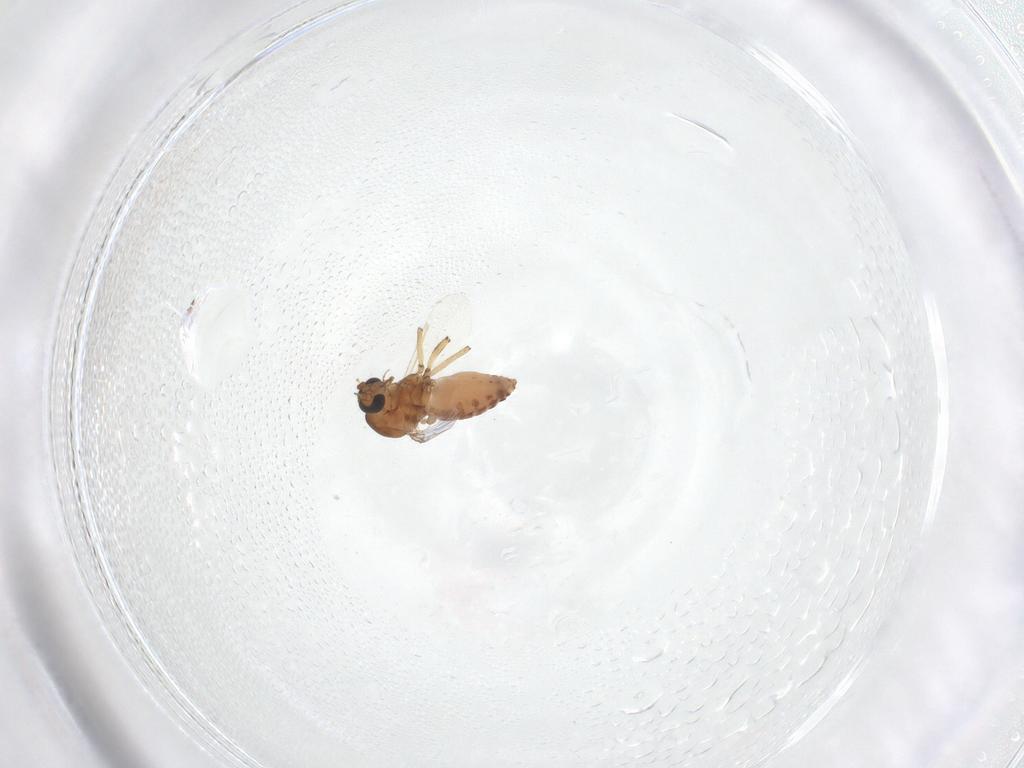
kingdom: Animalia
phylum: Arthropoda
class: Insecta
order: Diptera
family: Ceratopogonidae
